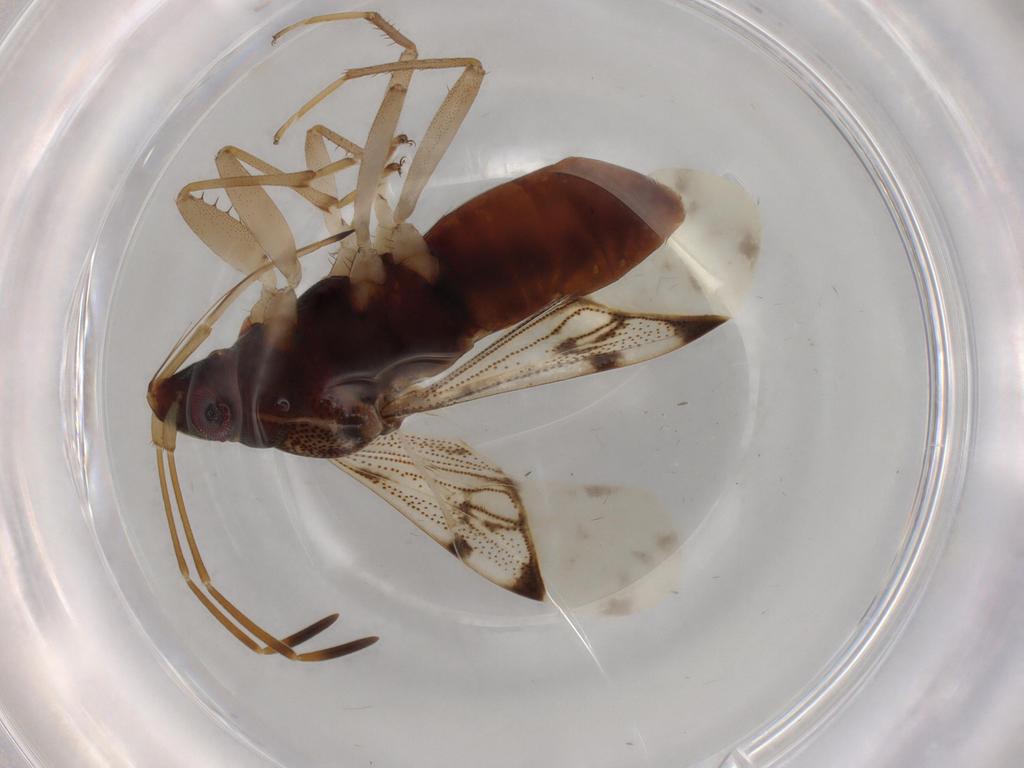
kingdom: Animalia
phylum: Arthropoda
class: Insecta
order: Hemiptera
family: Rhyparochromidae
